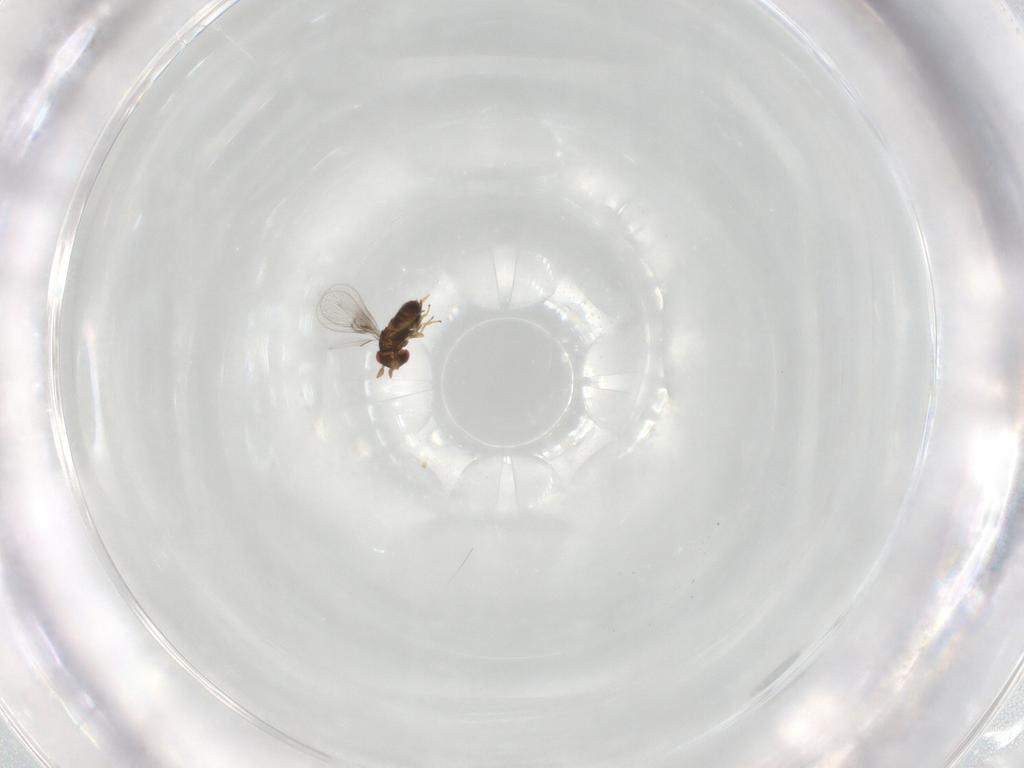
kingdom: Animalia
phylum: Arthropoda
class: Insecta
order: Hymenoptera
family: Trichogrammatidae
